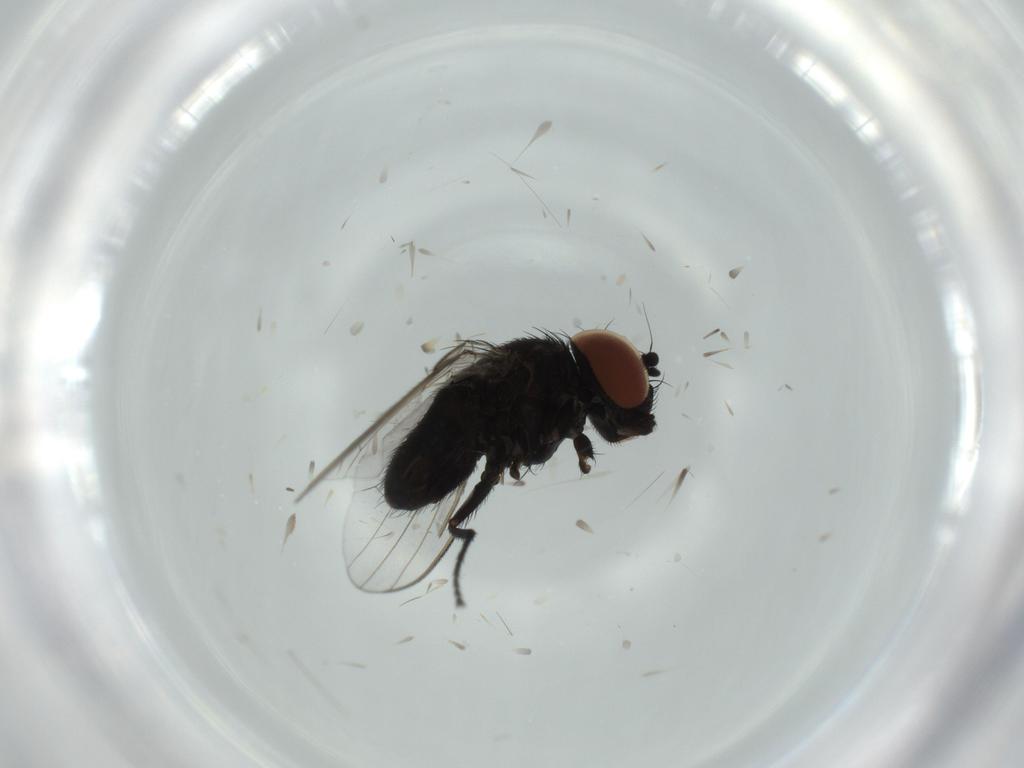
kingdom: Animalia
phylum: Arthropoda
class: Insecta
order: Diptera
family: Milichiidae
